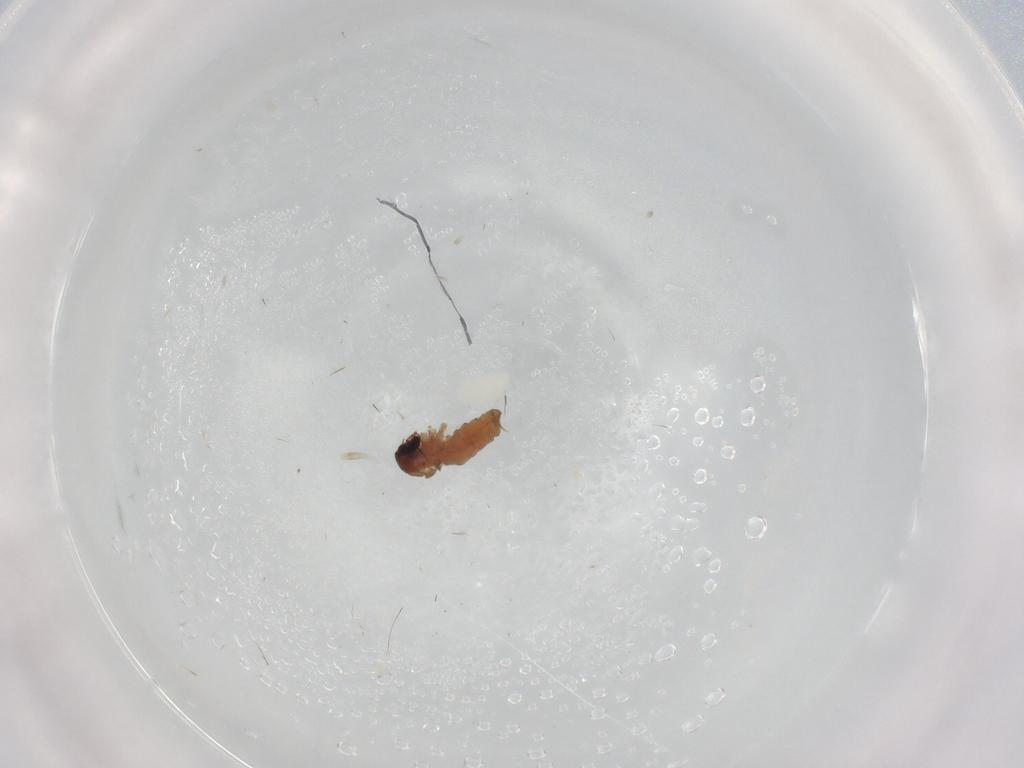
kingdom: Animalia
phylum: Arthropoda
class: Insecta
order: Diptera
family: Psychodidae
